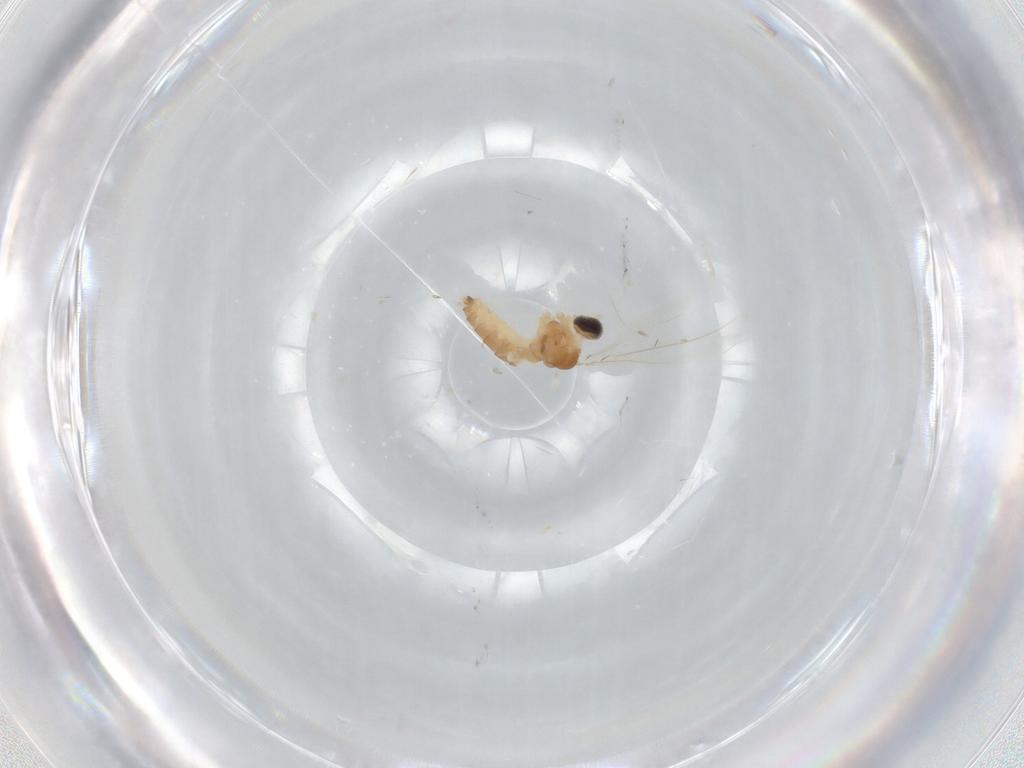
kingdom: Animalia
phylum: Arthropoda
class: Insecta
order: Diptera
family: Cecidomyiidae
